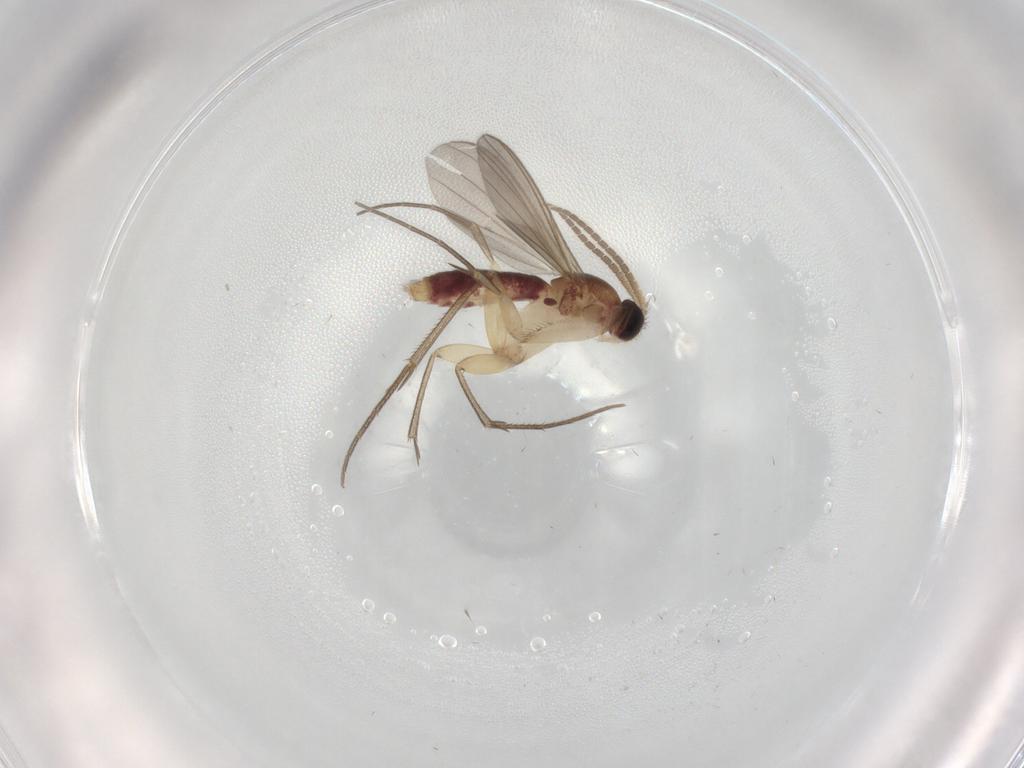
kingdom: Animalia
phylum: Arthropoda
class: Insecta
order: Diptera
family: Mycetophilidae
